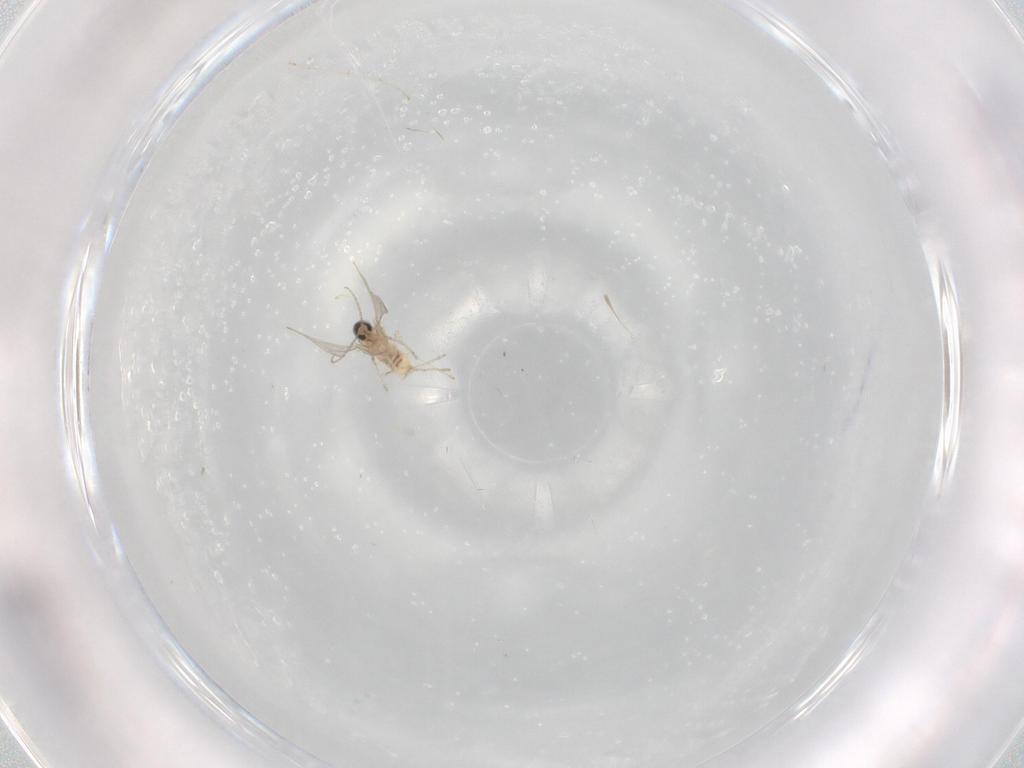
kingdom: Animalia
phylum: Arthropoda
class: Insecta
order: Diptera
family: Cecidomyiidae
